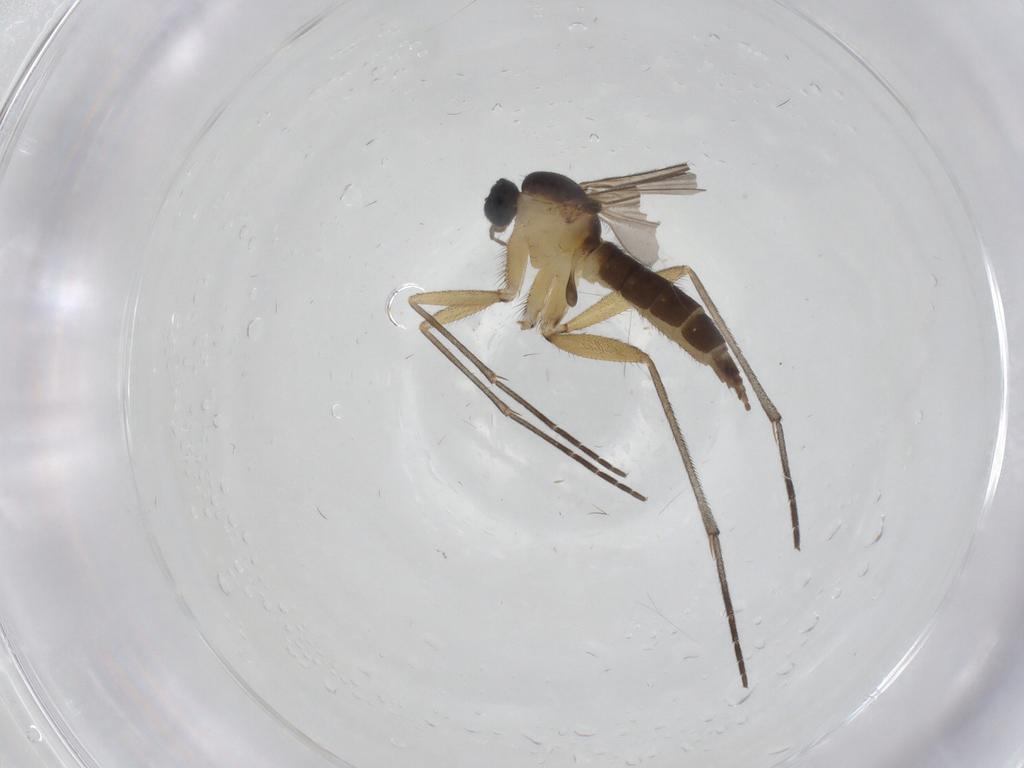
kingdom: Animalia
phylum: Arthropoda
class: Insecta
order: Diptera
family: Sciaridae
